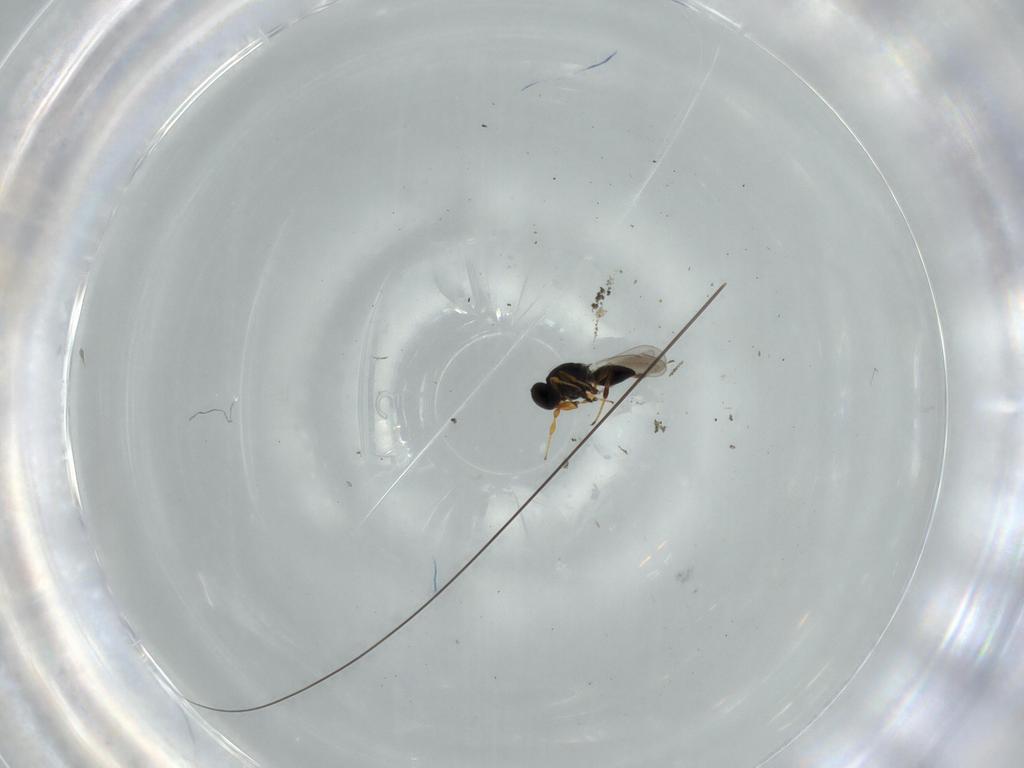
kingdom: Animalia
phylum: Arthropoda
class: Insecta
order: Hymenoptera
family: Platygastridae
